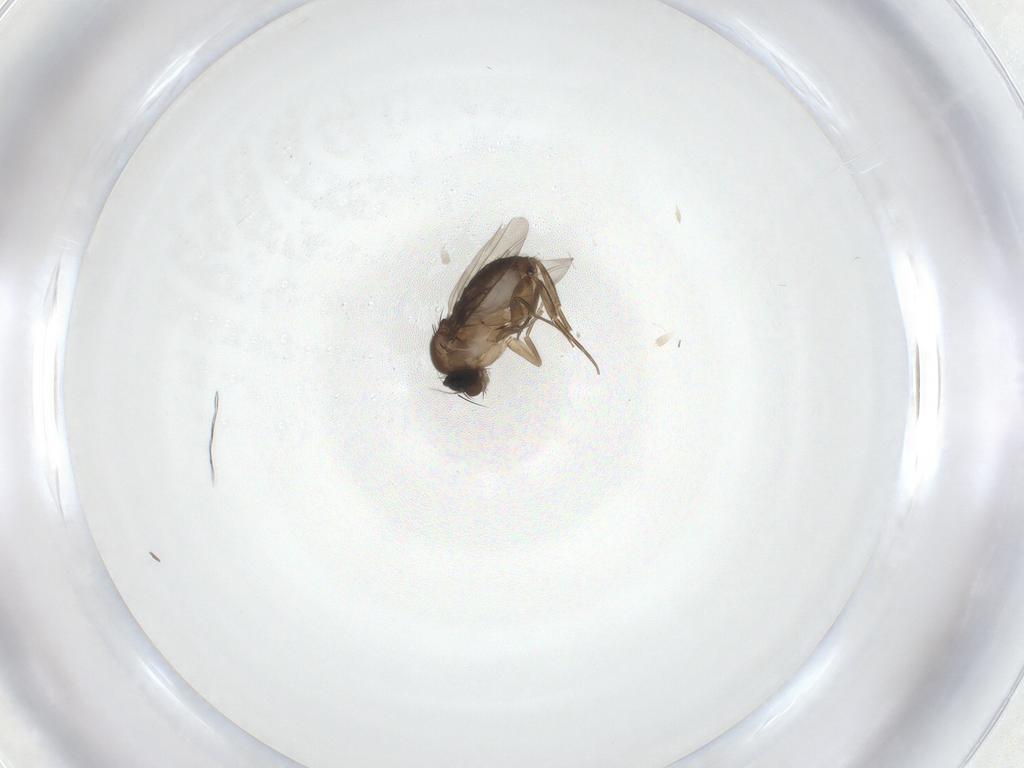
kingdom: Animalia
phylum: Arthropoda
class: Insecta
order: Diptera
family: Phoridae
